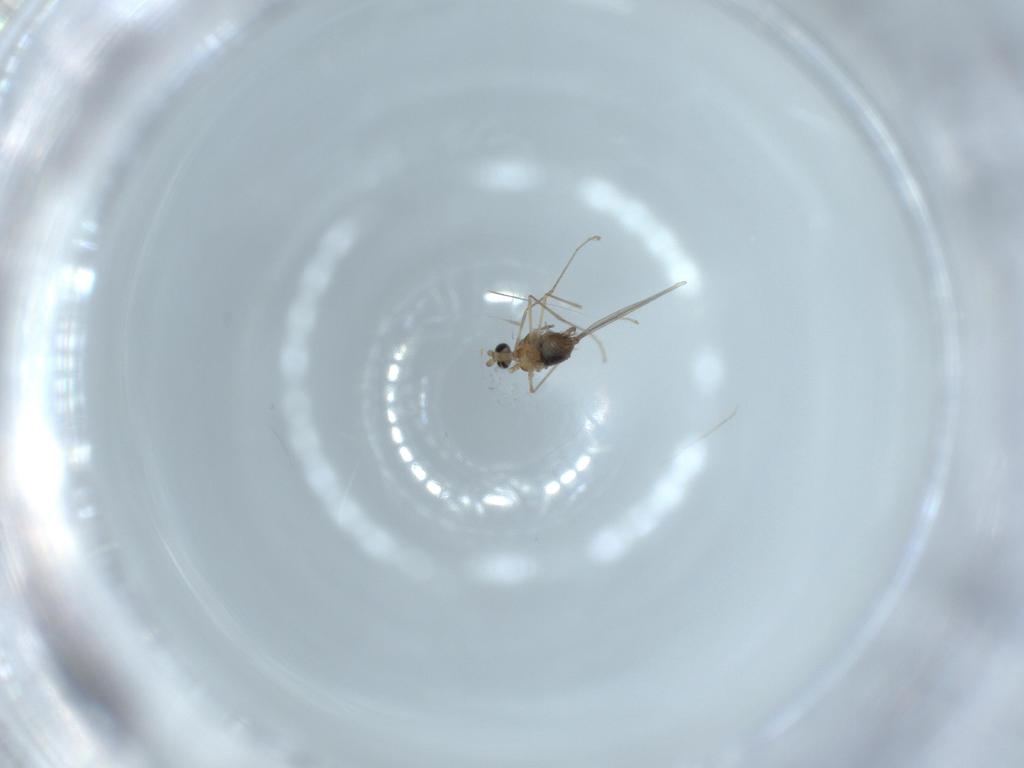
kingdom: Animalia
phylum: Arthropoda
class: Insecta
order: Diptera
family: Cecidomyiidae
